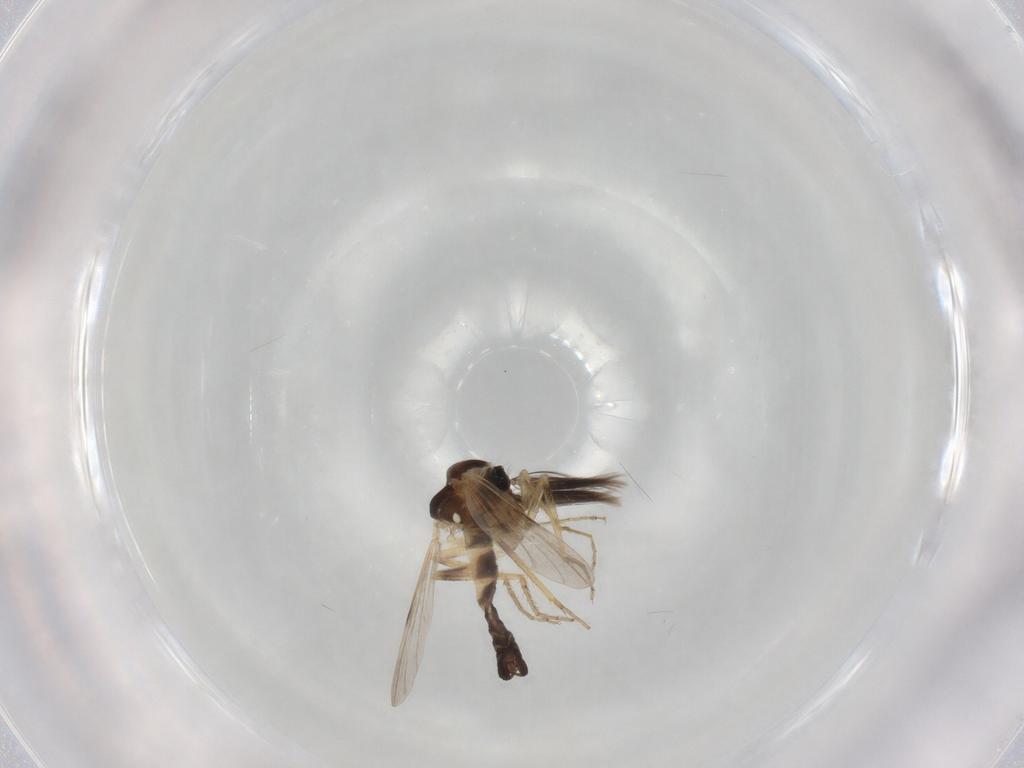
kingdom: Animalia
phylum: Arthropoda
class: Insecta
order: Diptera
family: Ceratopogonidae
